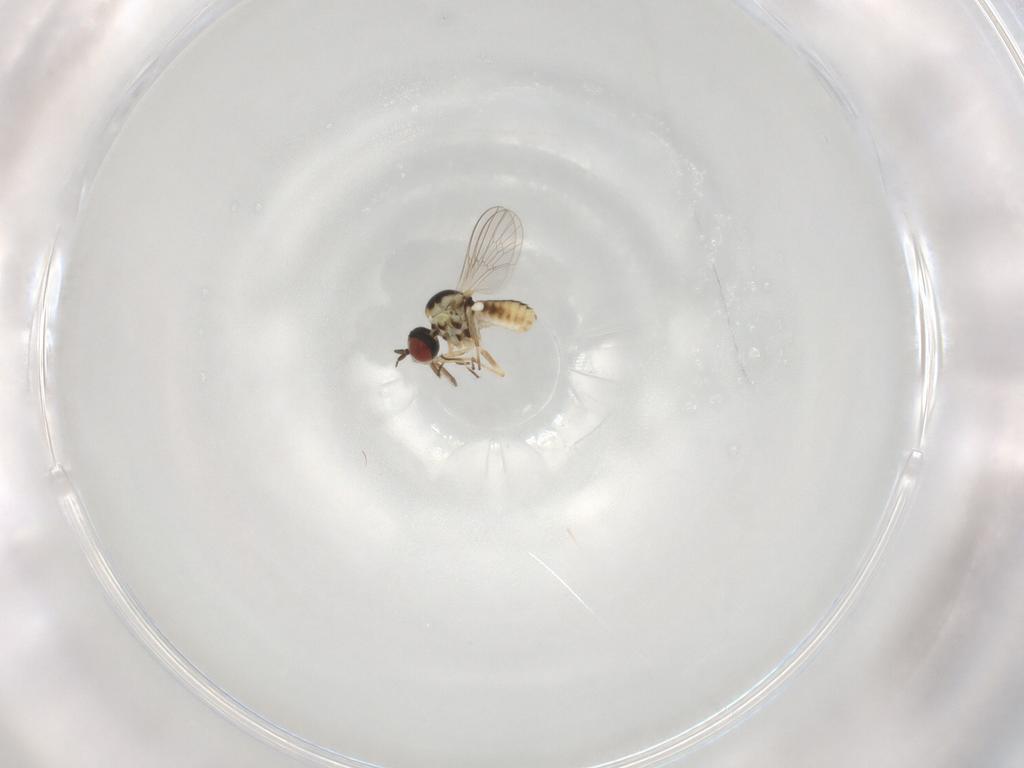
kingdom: Animalia
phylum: Arthropoda
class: Insecta
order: Diptera
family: Mythicomyiidae
